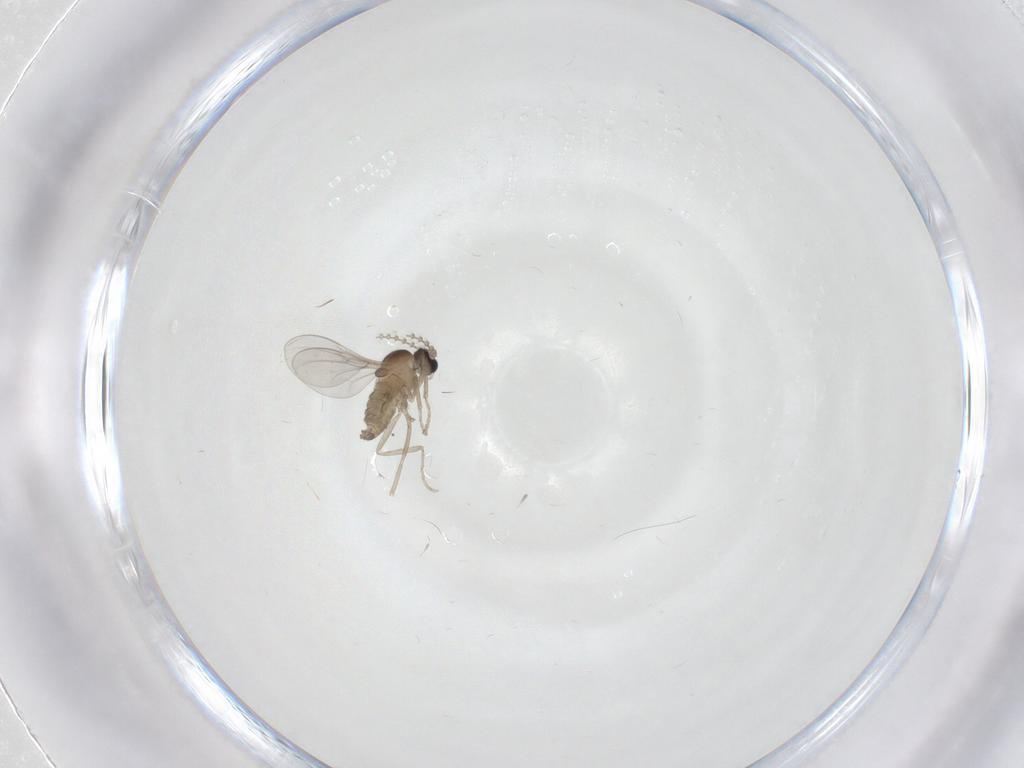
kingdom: Animalia
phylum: Arthropoda
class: Insecta
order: Diptera
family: Cecidomyiidae
